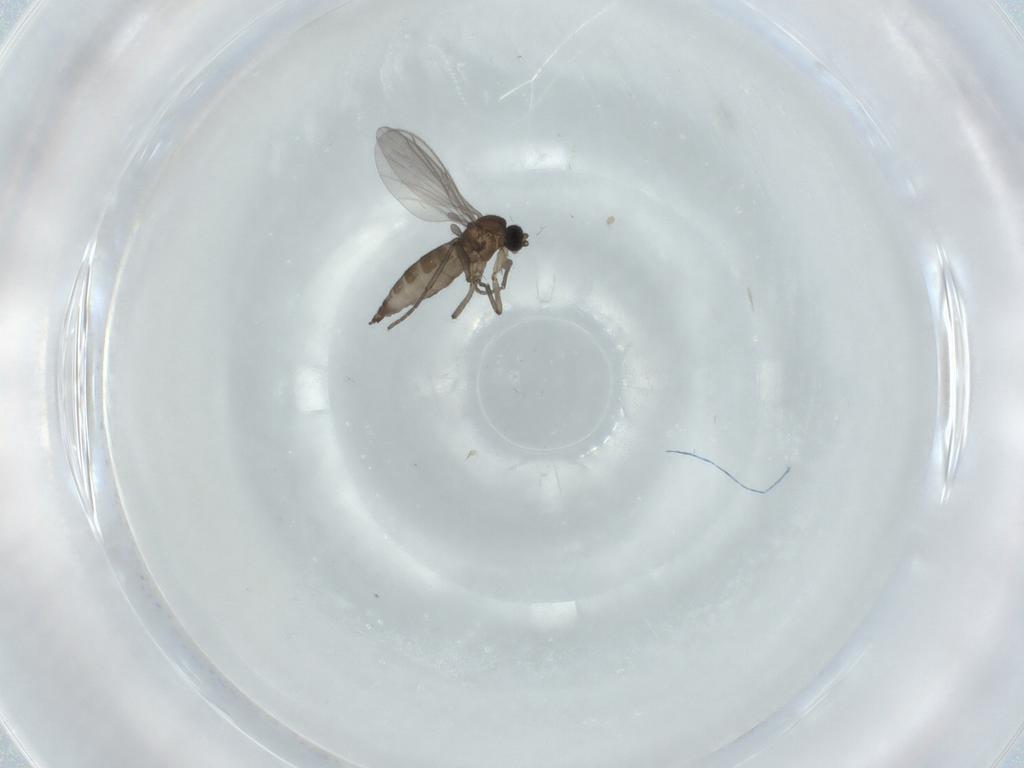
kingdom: Animalia
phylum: Arthropoda
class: Insecta
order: Diptera
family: Sciaridae
